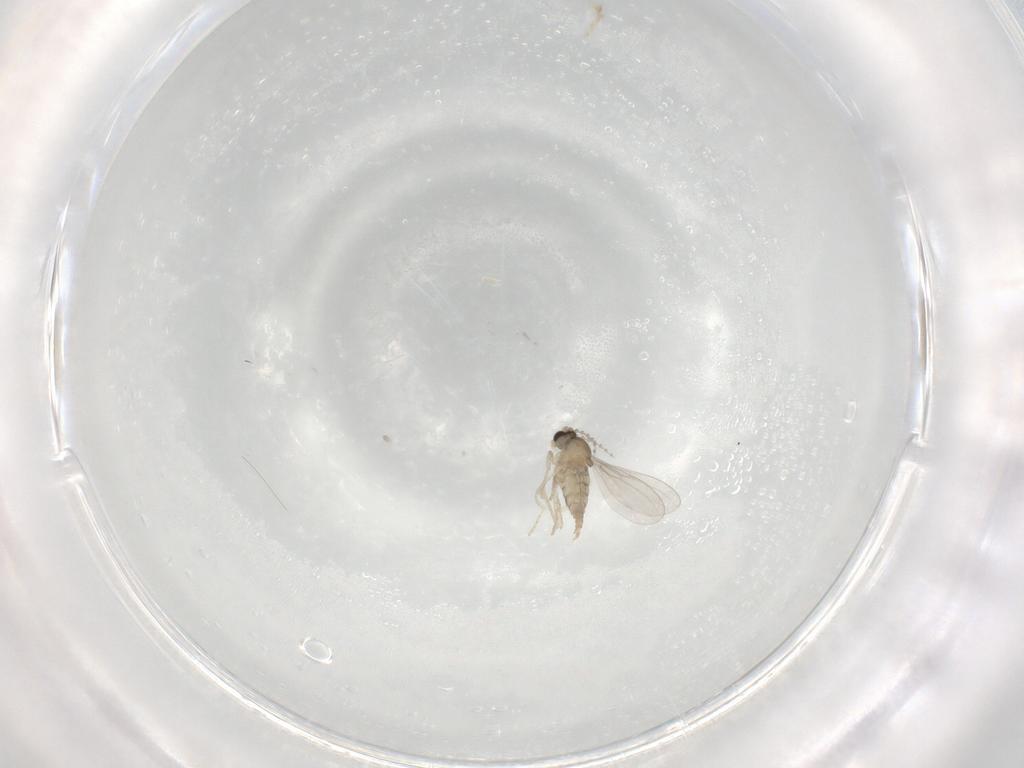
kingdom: Animalia
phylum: Arthropoda
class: Insecta
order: Diptera
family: Cecidomyiidae
